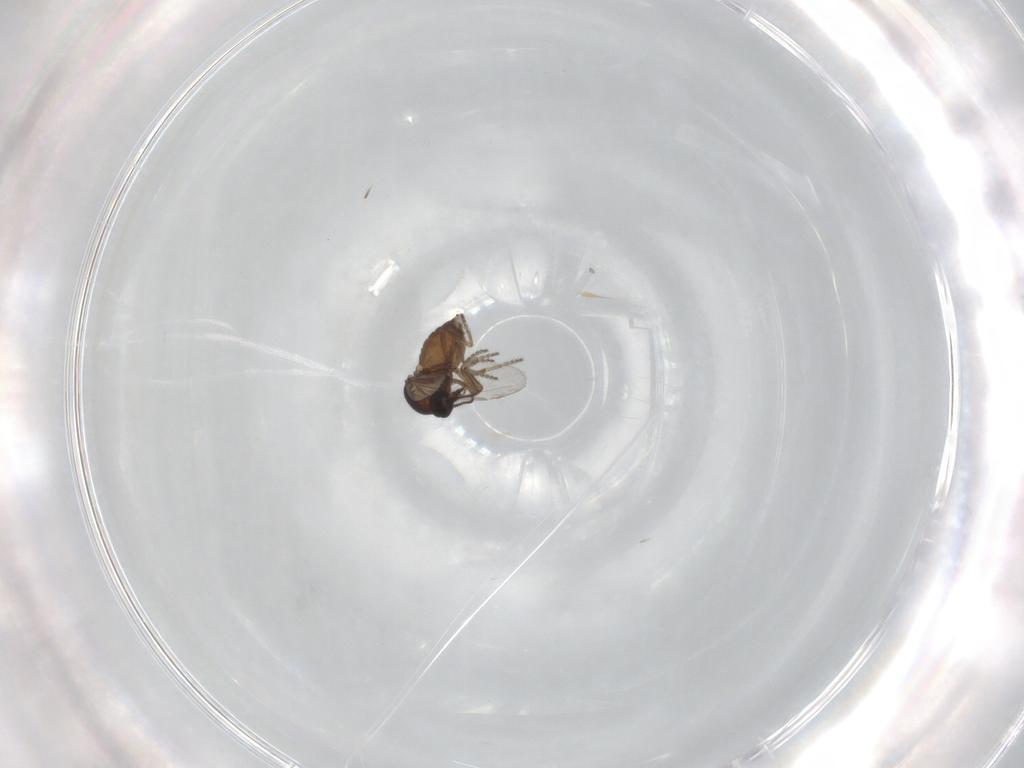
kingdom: Animalia
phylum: Arthropoda
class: Insecta
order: Diptera
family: Ceratopogonidae
